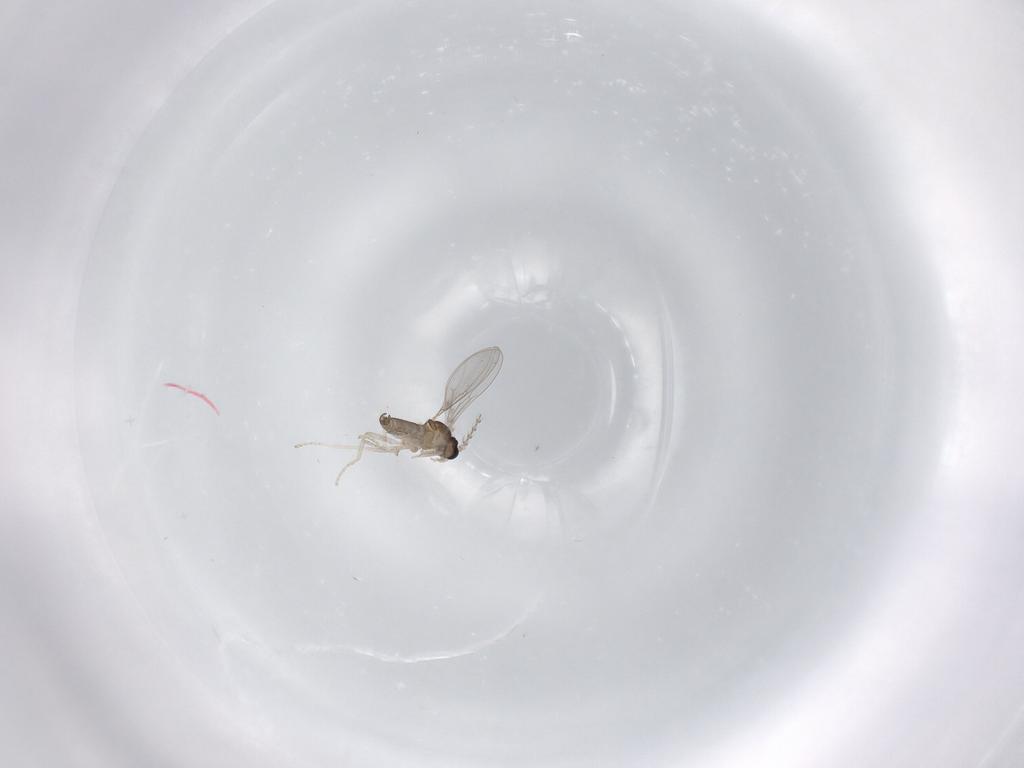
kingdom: Animalia
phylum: Arthropoda
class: Insecta
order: Diptera
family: Cecidomyiidae
